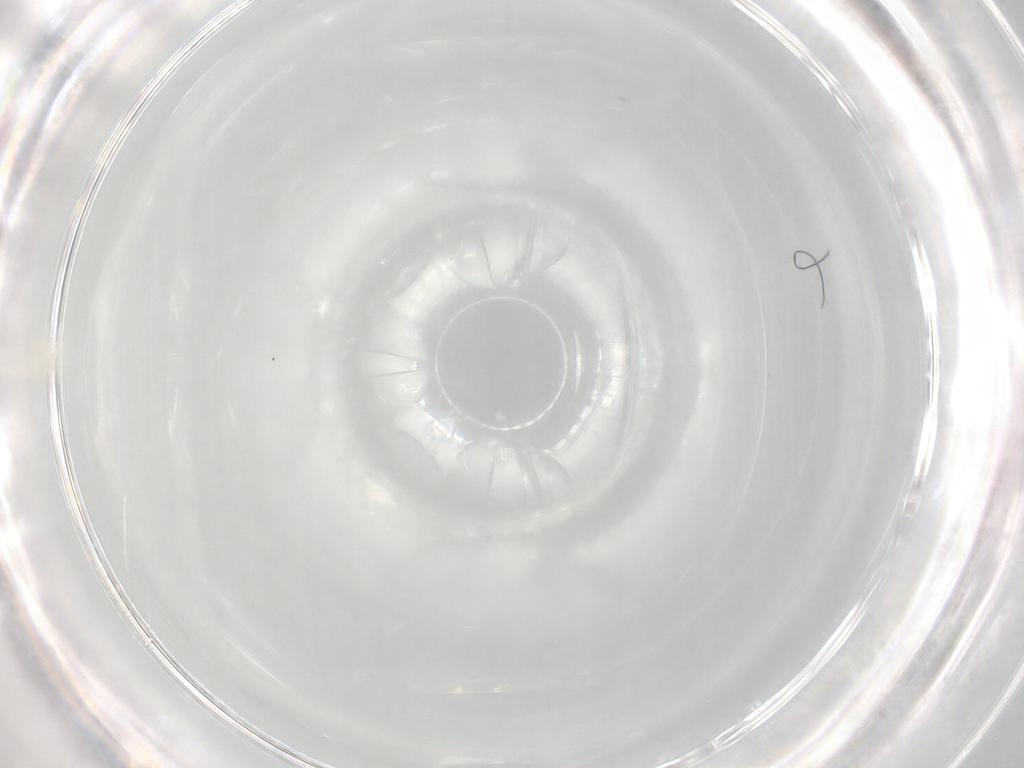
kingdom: Animalia
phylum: Arthropoda
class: Arachnida
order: Trombidiformes
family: Rhagidiidae
